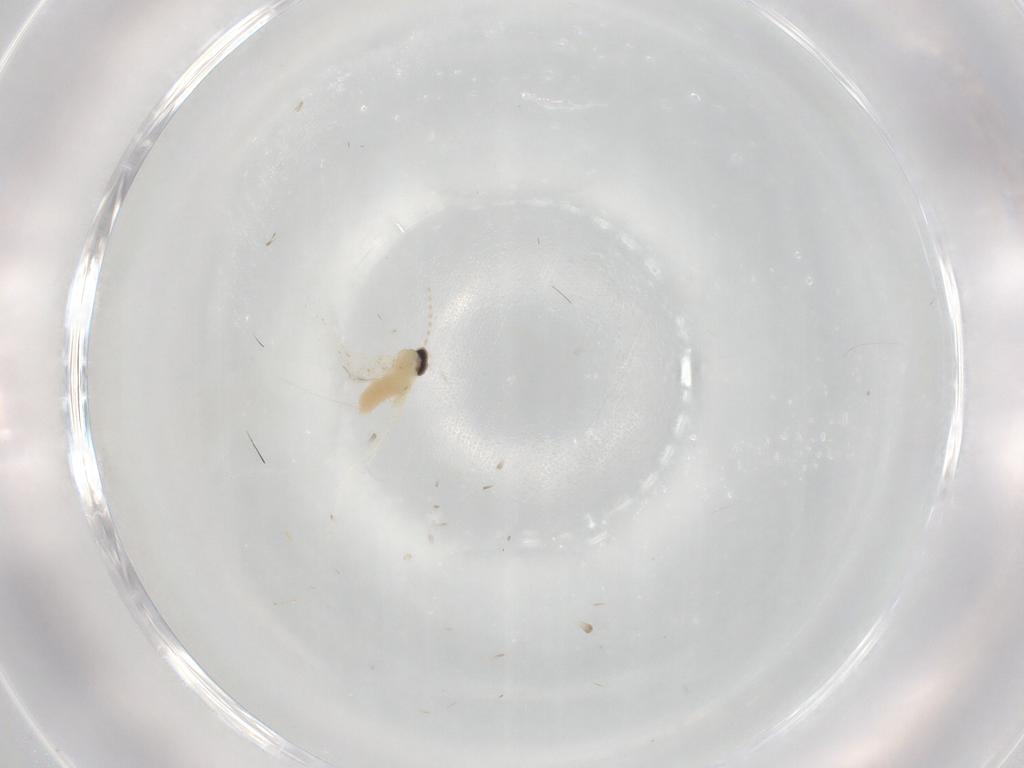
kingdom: Animalia
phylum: Arthropoda
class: Insecta
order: Diptera
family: Cecidomyiidae
